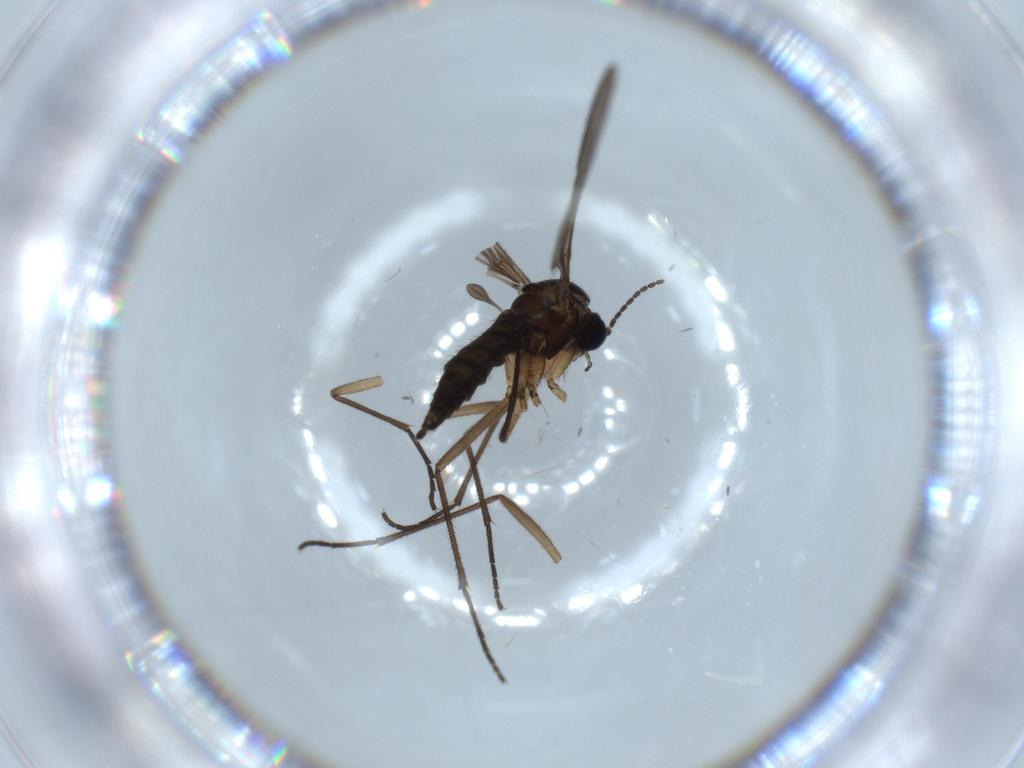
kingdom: Animalia
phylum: Arthropoda
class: Insecta
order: Diptera
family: Sciaridae
